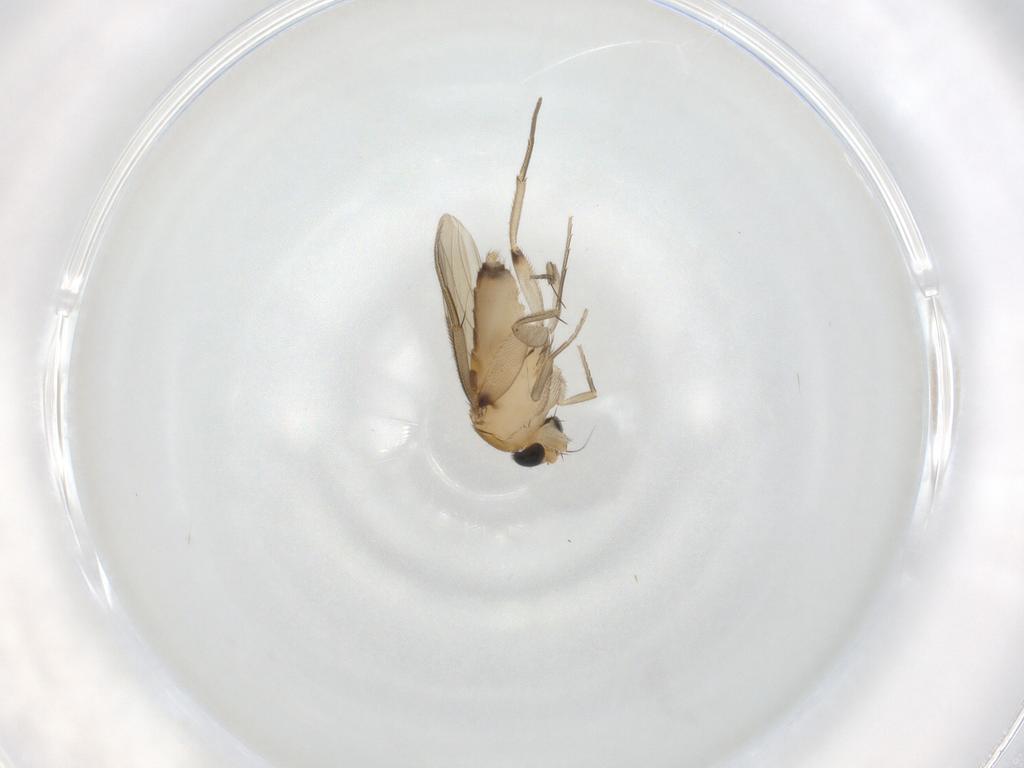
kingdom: Animalia
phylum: Arthropoda
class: Insecta
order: Diptera
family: Phoridae
